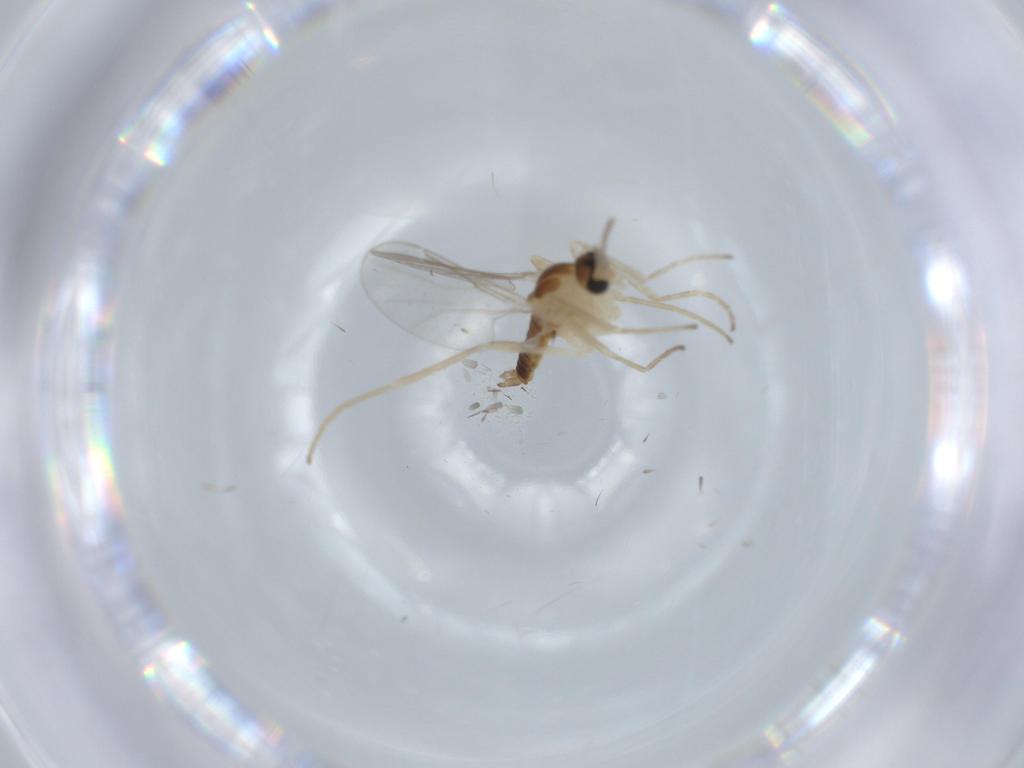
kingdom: Animalia
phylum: Arthropoda
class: Insecta
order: Diptera
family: Cecidomyiidae
